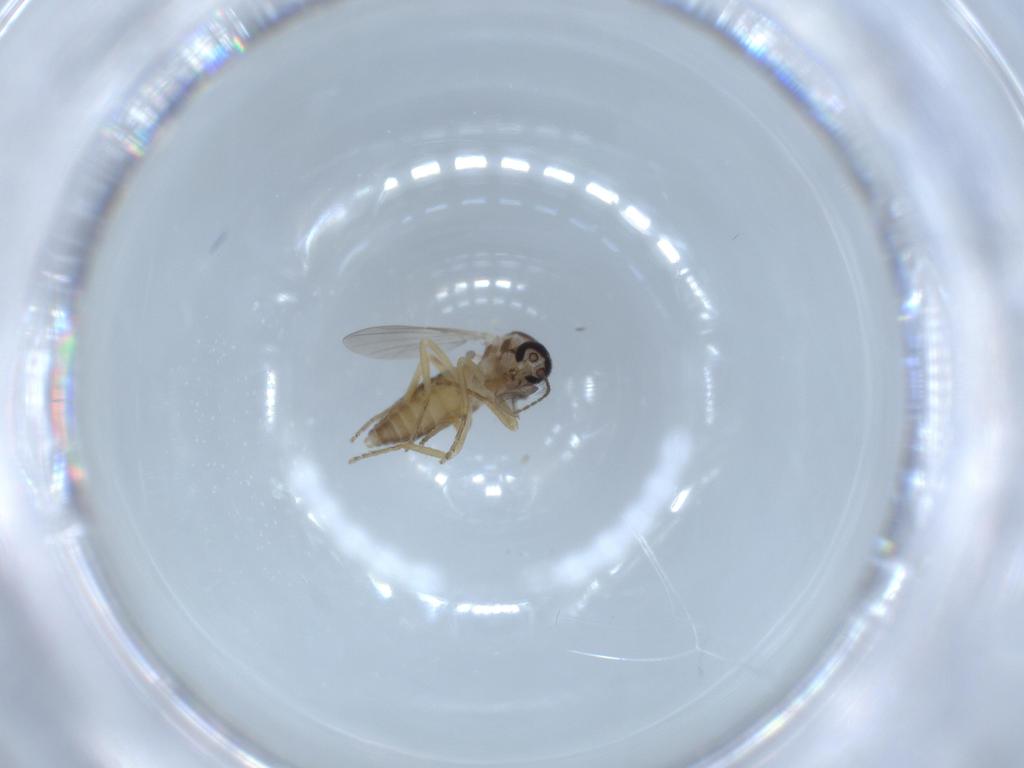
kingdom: Animalia
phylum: Arthropoda
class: Insecta
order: Diptera
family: Ceratopogonidae
